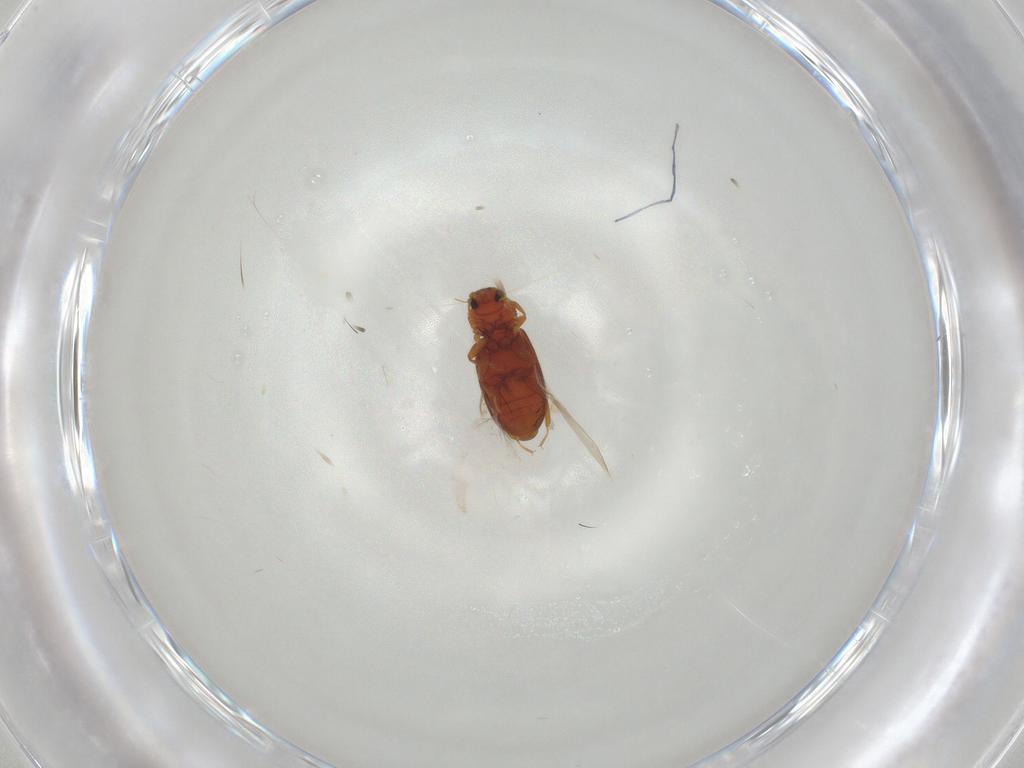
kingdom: Animalia
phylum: Arthropoda
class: Insecta
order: Coleoptera
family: Latridiidae
